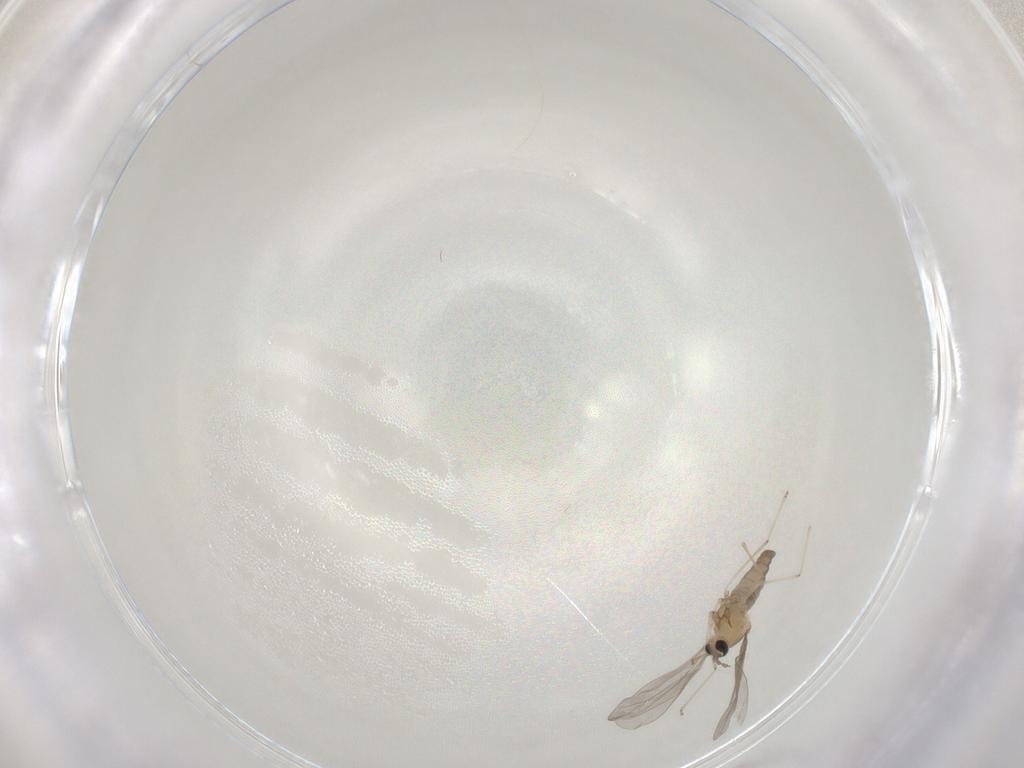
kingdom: Animalia
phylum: Arthropoda
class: Insecta
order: Diptera
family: Cecidomyiidae
